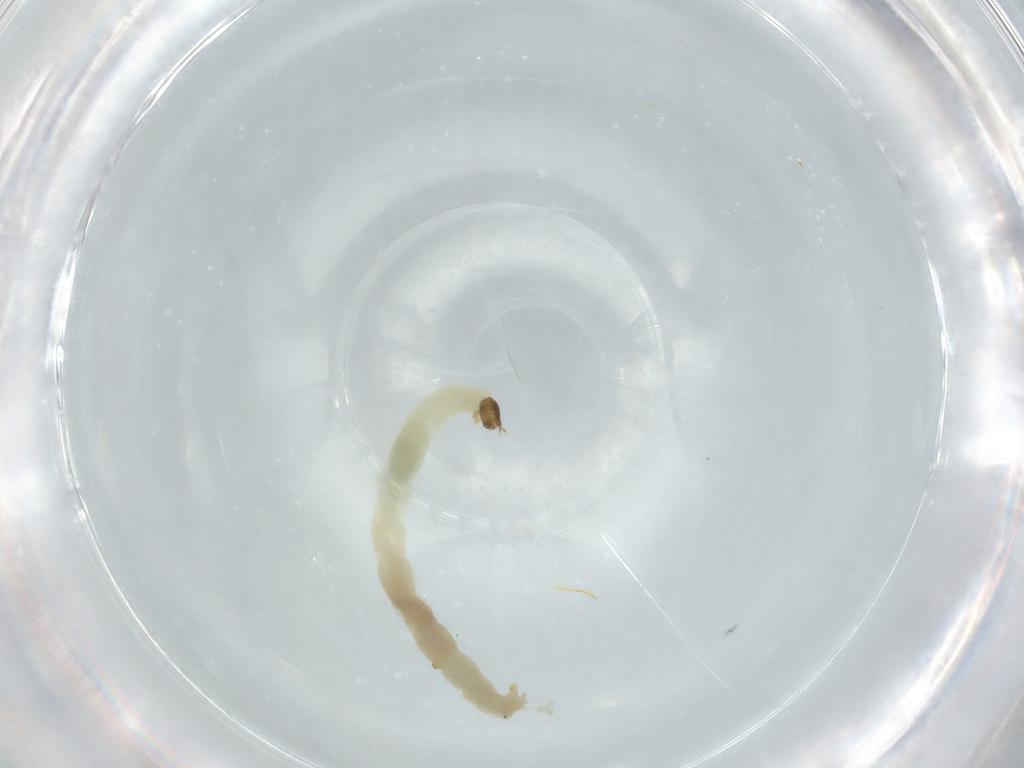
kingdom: Animalia
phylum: Arthropoda
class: Insecta
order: Diptera
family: Chironomidae
